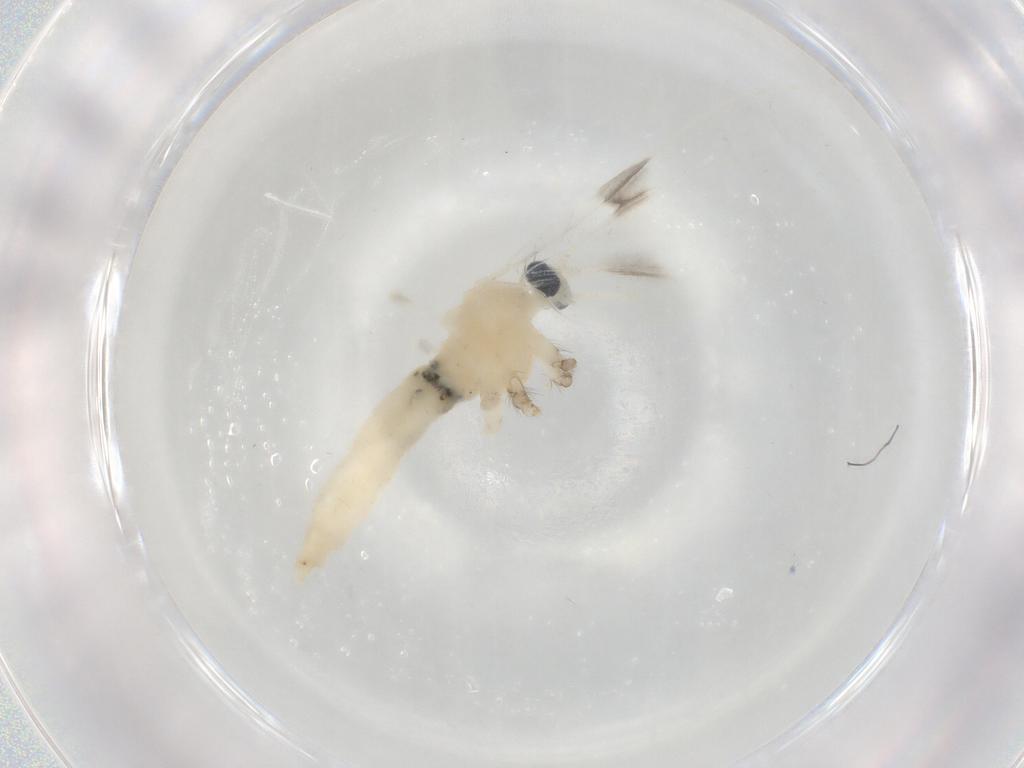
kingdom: Animalia
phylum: Arthropoda
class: Insecta
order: Diptera
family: Cecidomyiidae
